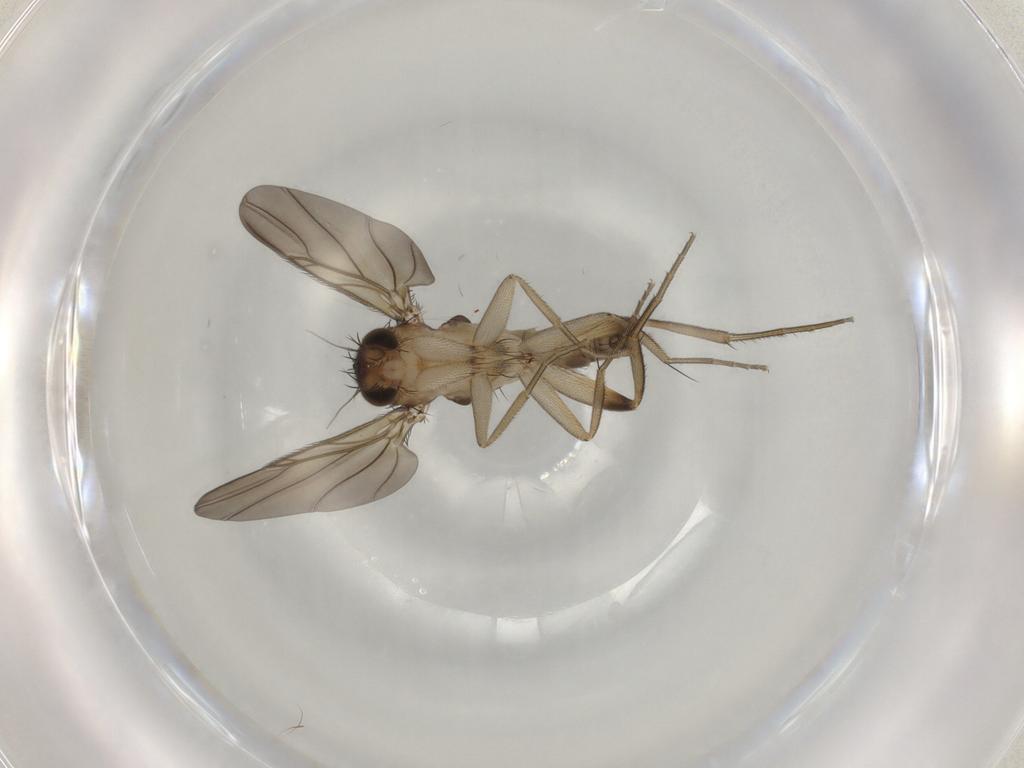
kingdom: Animalia
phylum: Arthropoda
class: Insecta
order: Diptera
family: Phoridae
